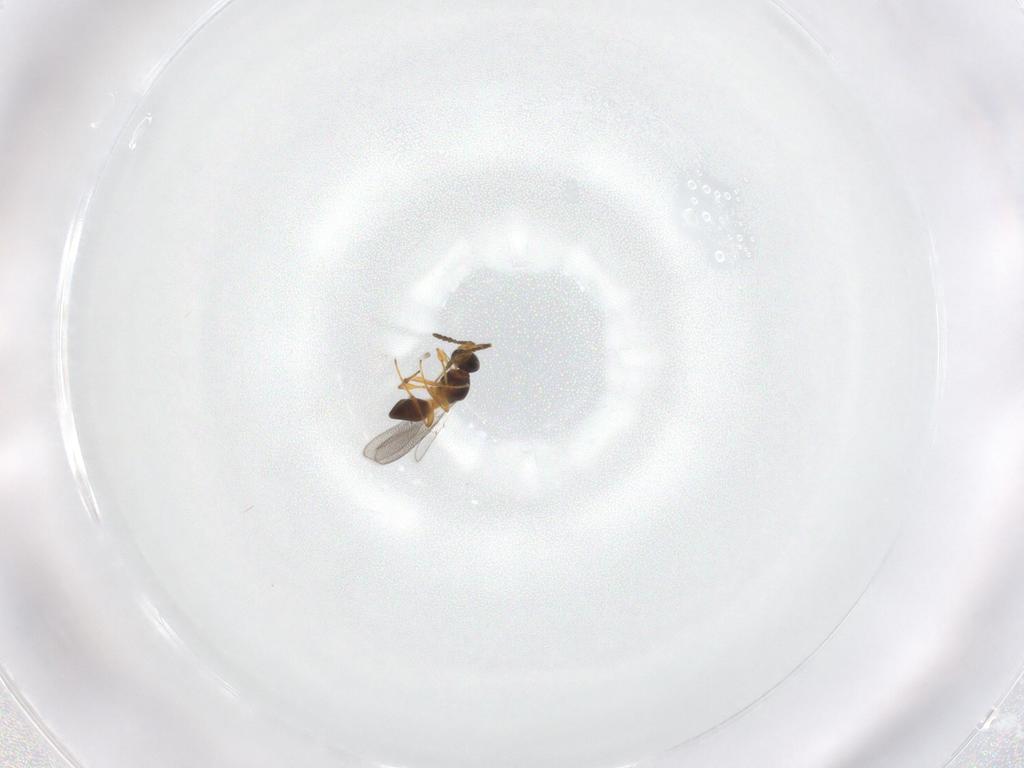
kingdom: Animalia
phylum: Arthropoda
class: Insecta
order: Hymenoptera
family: Platygastridae
